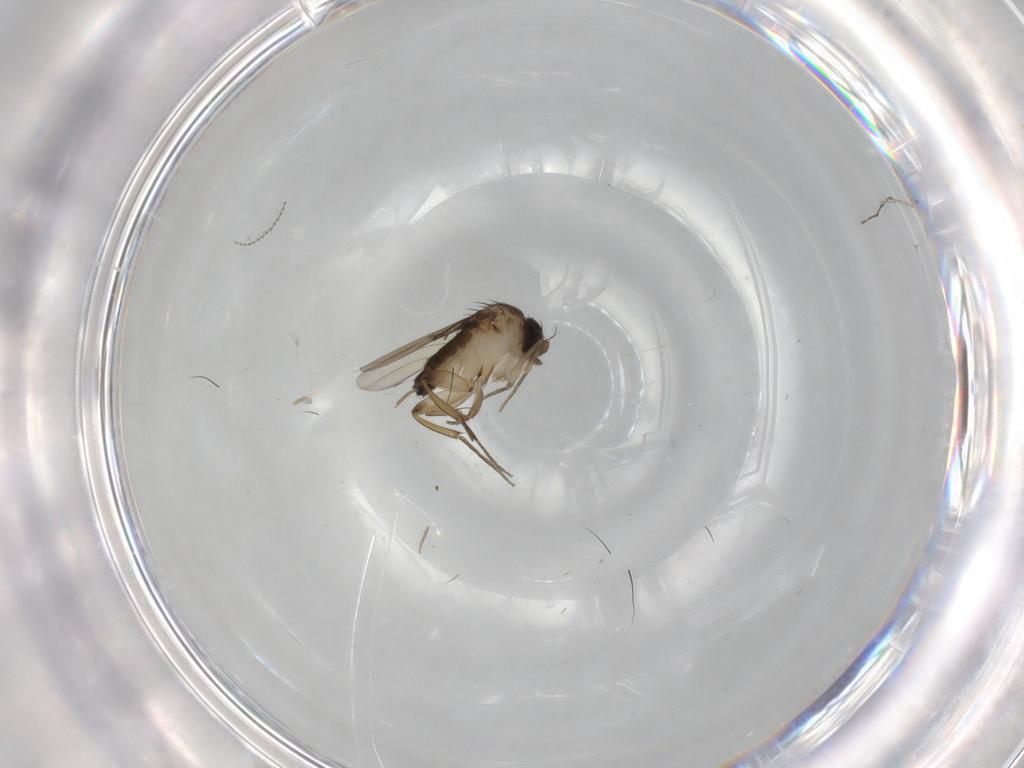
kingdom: Animalia
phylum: Arthropoda
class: Insecta
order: Diptera
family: Phoridae
